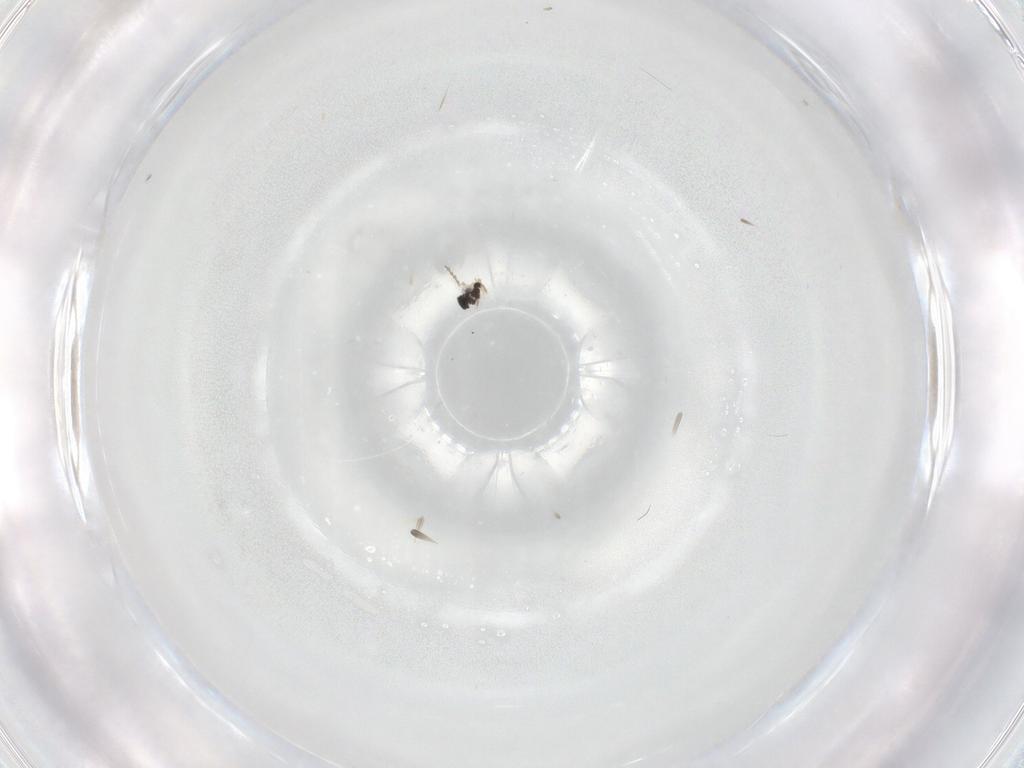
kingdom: Animalia
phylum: Arthropoda
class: Insecta
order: Diptera
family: Cecidomyiidae
